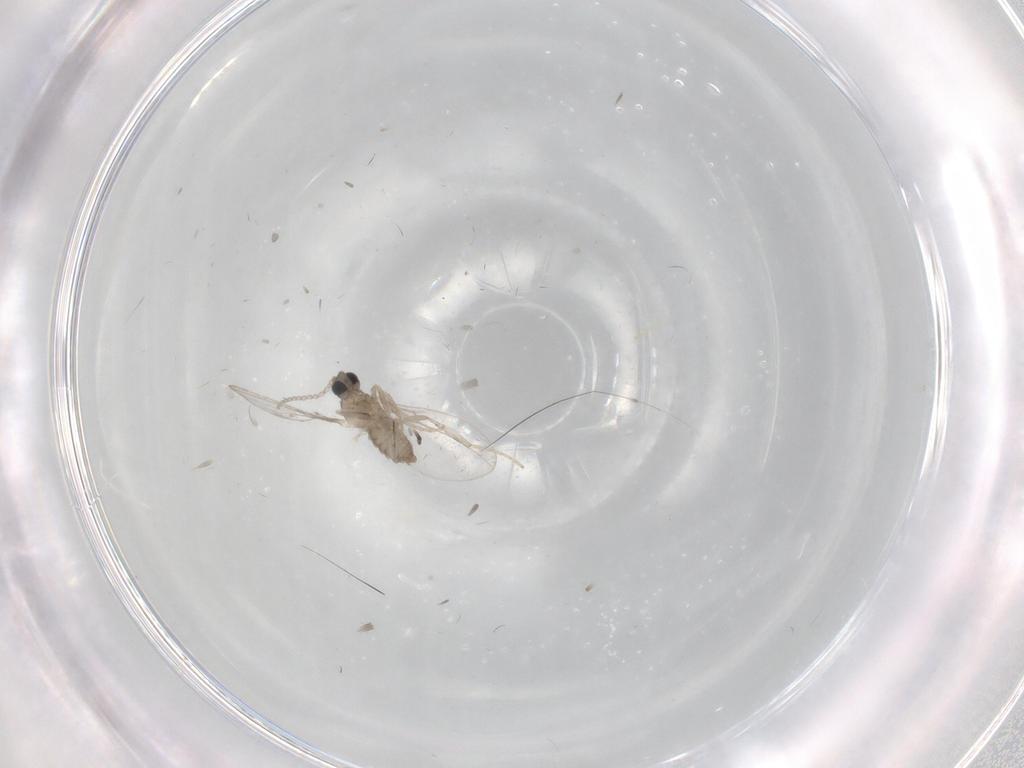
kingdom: Animalia
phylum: Arthropoda
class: Insecta
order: Diptera
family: Cecidomyiidae
